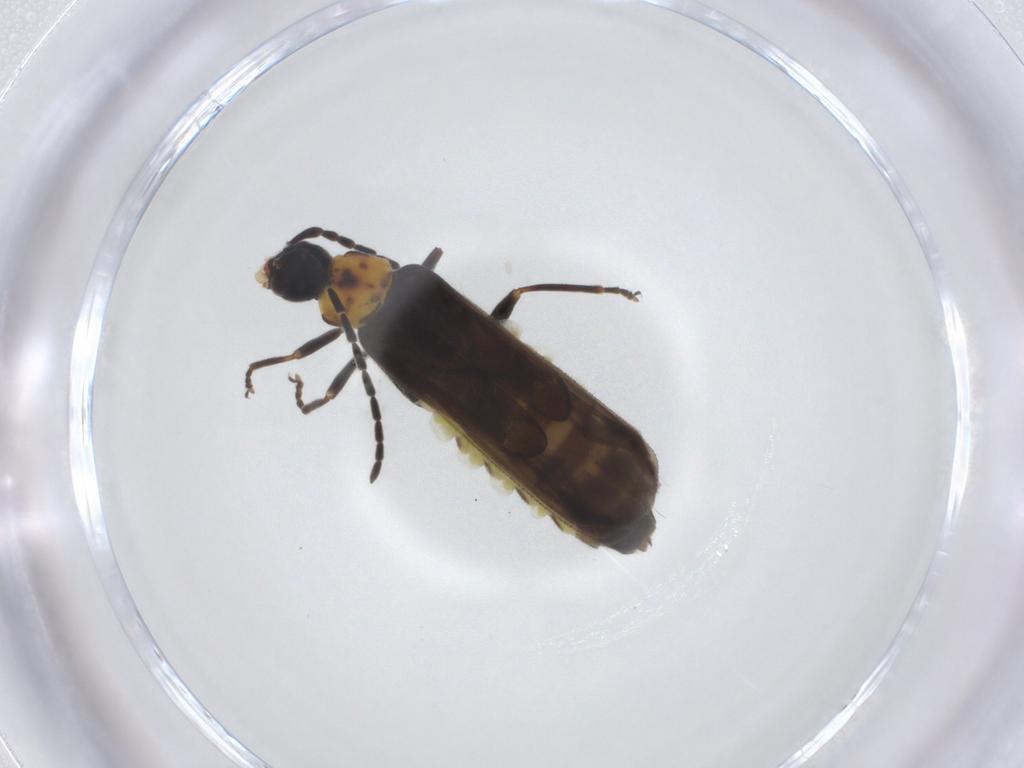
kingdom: Animalia
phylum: Arthropoda
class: Insecta
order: Coleoptera
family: Cantharidae
